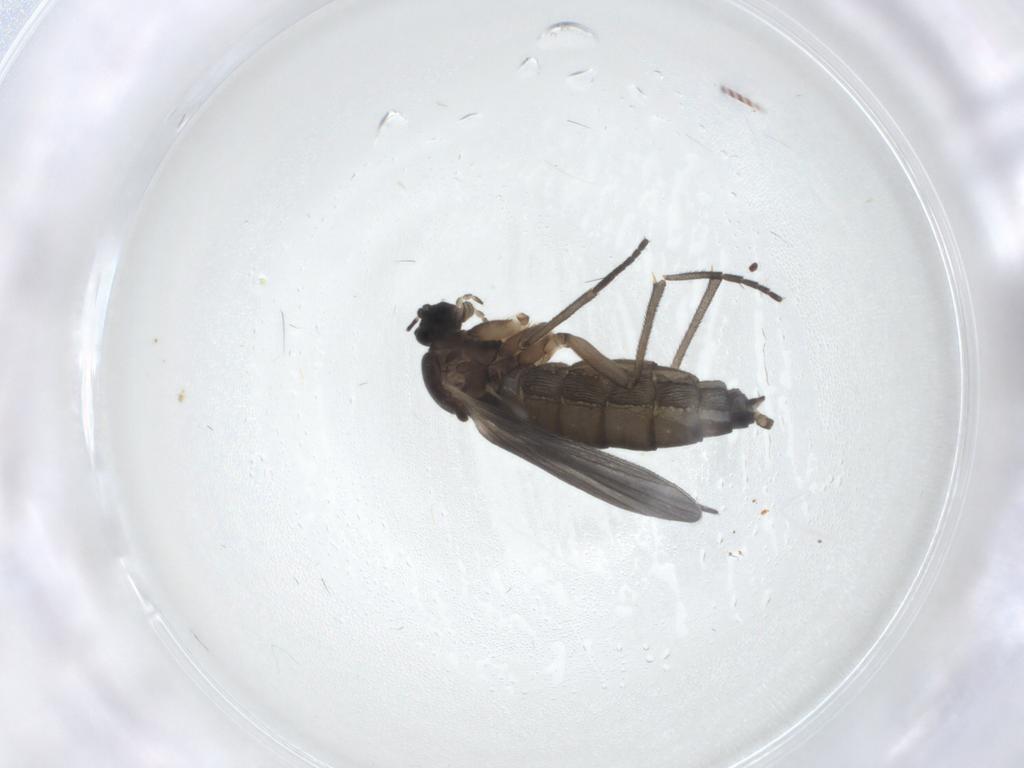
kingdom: Animalia
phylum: Arthropoda
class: Insecta
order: Diptera
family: Sciaridae
